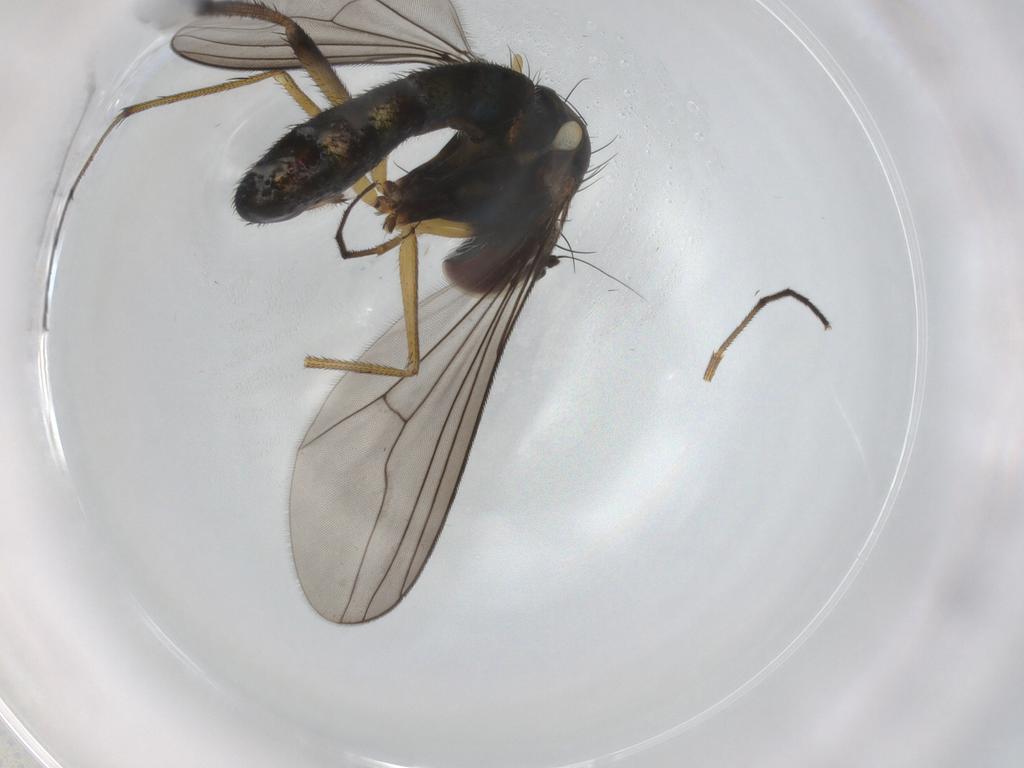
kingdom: Animalia
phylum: Arthropoda
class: Insecta
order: Diptera
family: Dolichopodidae
